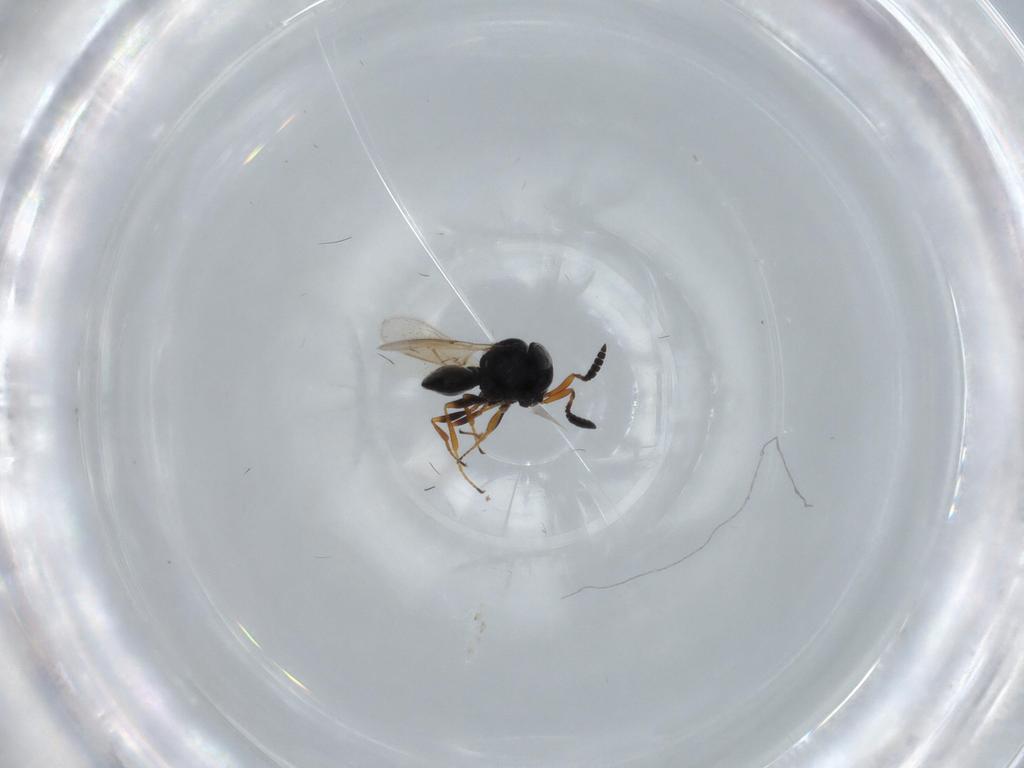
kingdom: Animalia
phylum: Arthropoda
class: Insecta
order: Hymenoptera
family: Scelionidae
